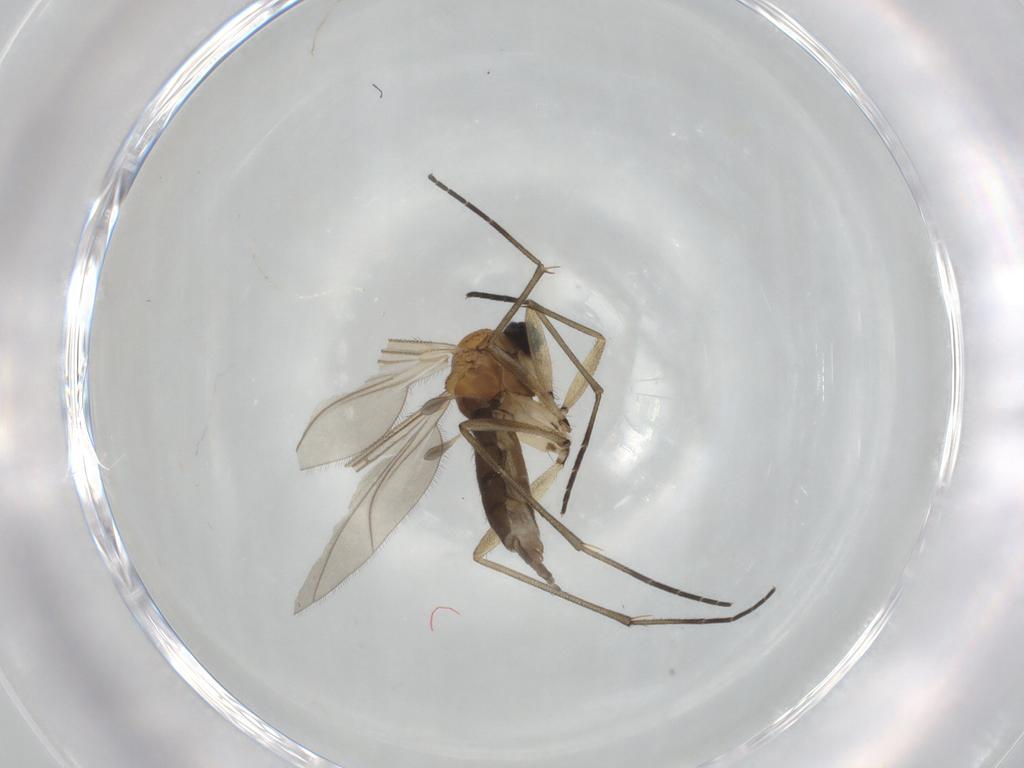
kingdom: Animalia
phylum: Arthropoda
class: Insecta
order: Diptera
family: Sciaridae
